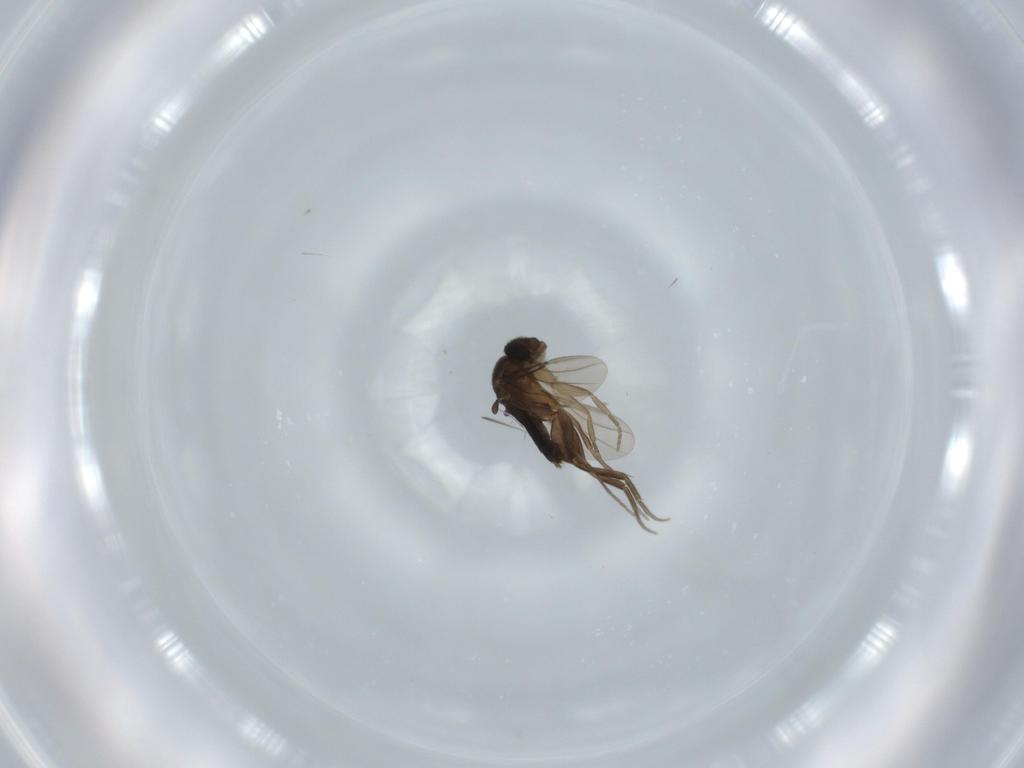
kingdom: Animalia
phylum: Arthropoda
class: Insecta
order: Diptera
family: Phoridae
